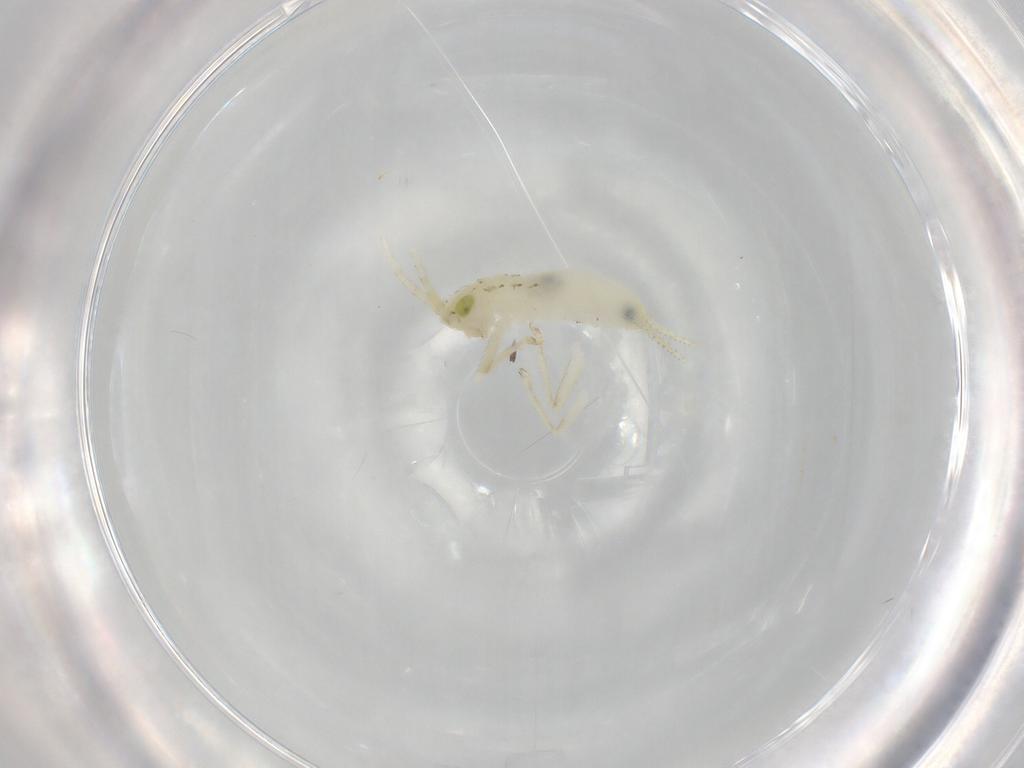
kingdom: Animalia
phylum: Arthropoda
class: Insecta
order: Orthoptera
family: Trigonidiidae
